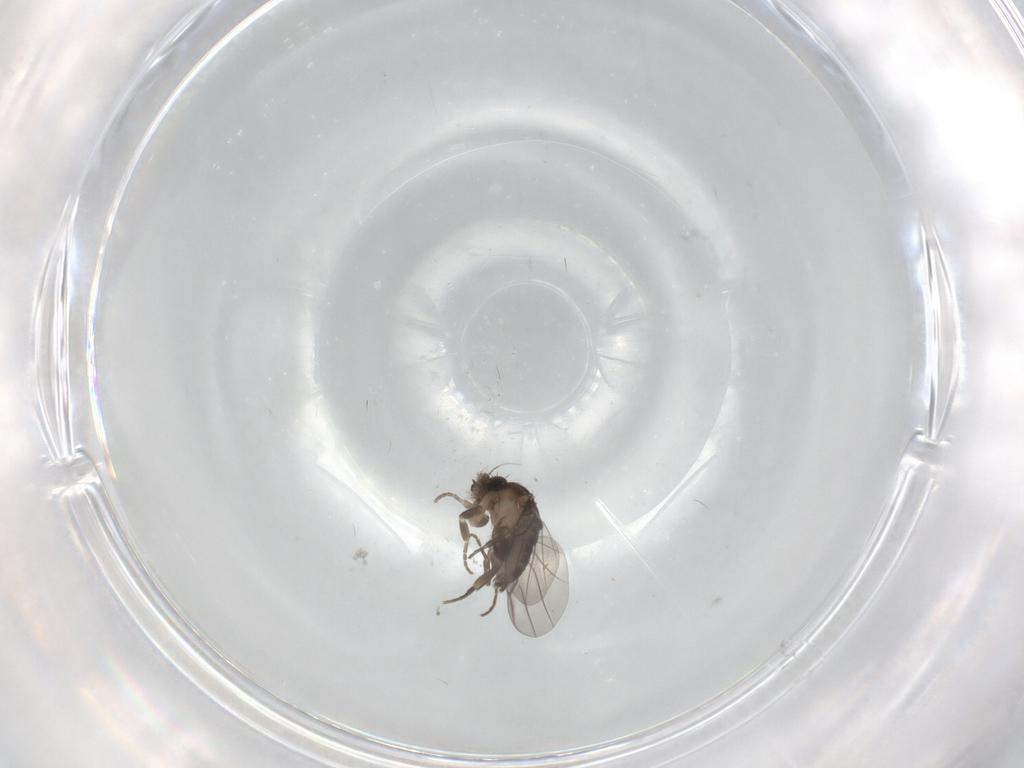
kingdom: Animalia
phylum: Arthropoda
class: Insecta
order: Diptera
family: Phoridae
